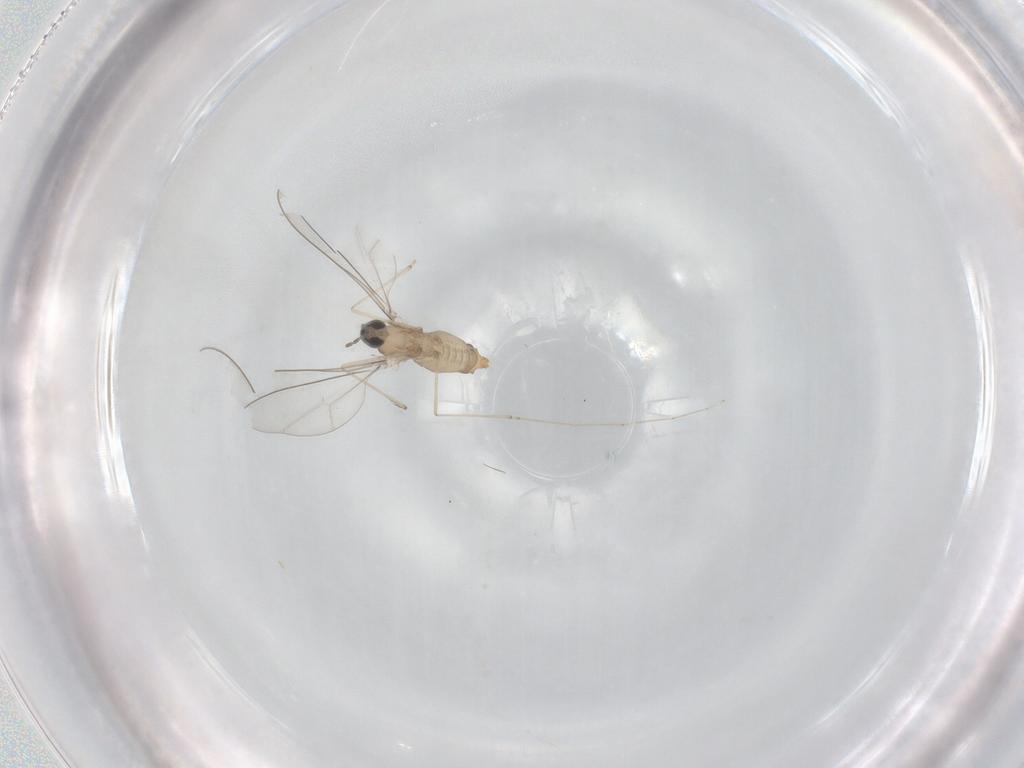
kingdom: Animalia
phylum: Arthropoda
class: Insecta
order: Diptera
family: Cecidomyiidae
